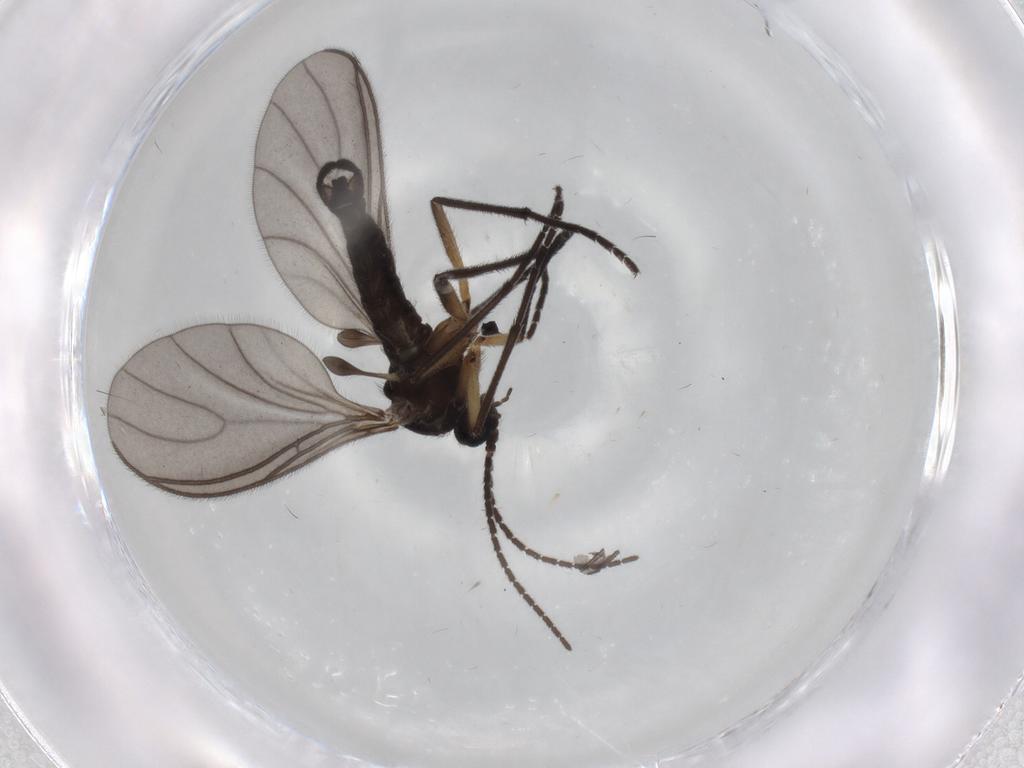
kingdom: Animalia
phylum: Arthropoda
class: Insecta
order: Diptera
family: Sciaridae
